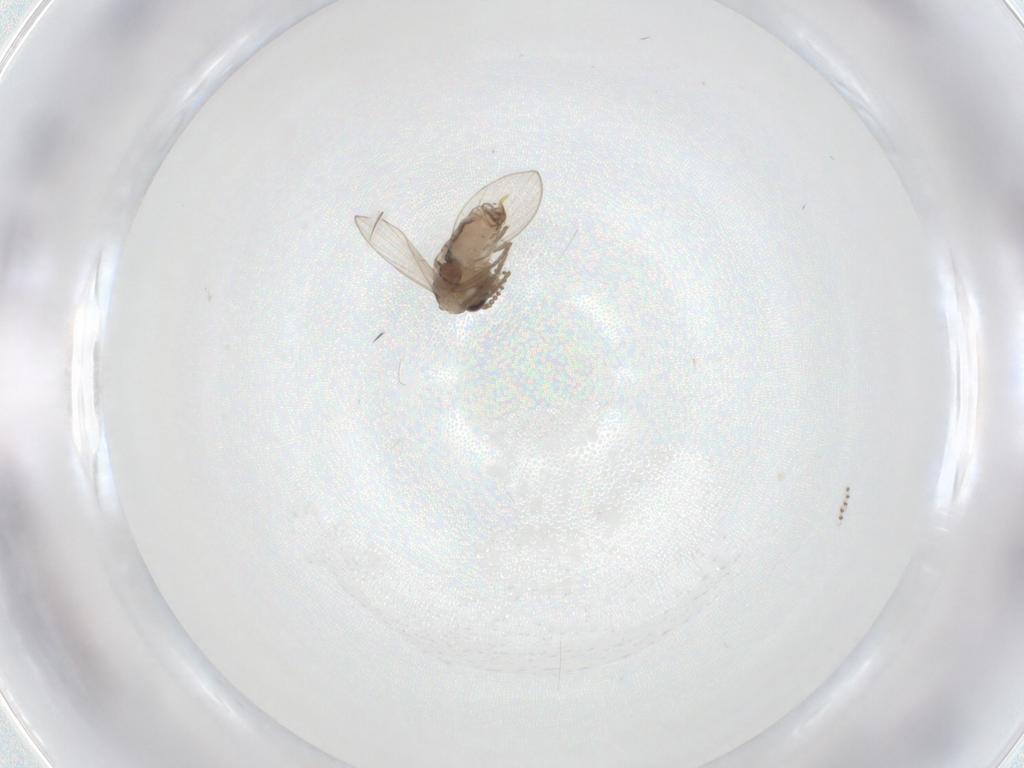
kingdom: Animalia
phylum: Arthropoda
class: Insecta
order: Diptera
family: Psychodidae
